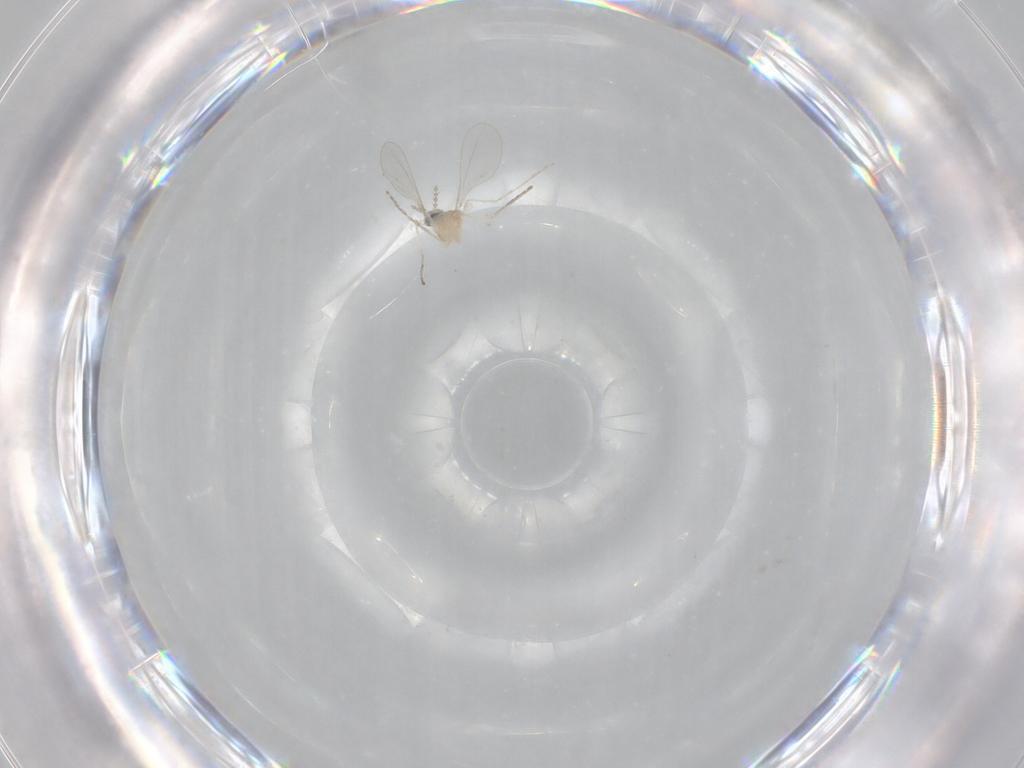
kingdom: Animalia
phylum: Arthropoda
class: Insecta
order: Diptera
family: Cecidomyiidae
